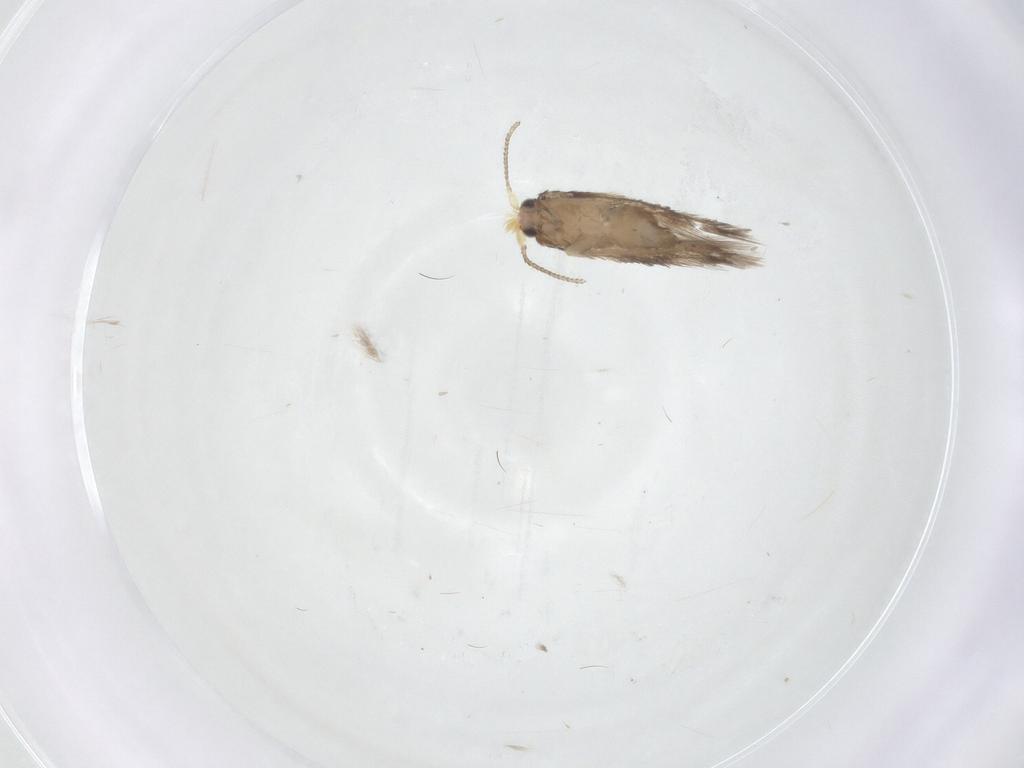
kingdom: Animalia
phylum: Arthropoda
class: Insecta
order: Lepidoptera
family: Nepticulidae
